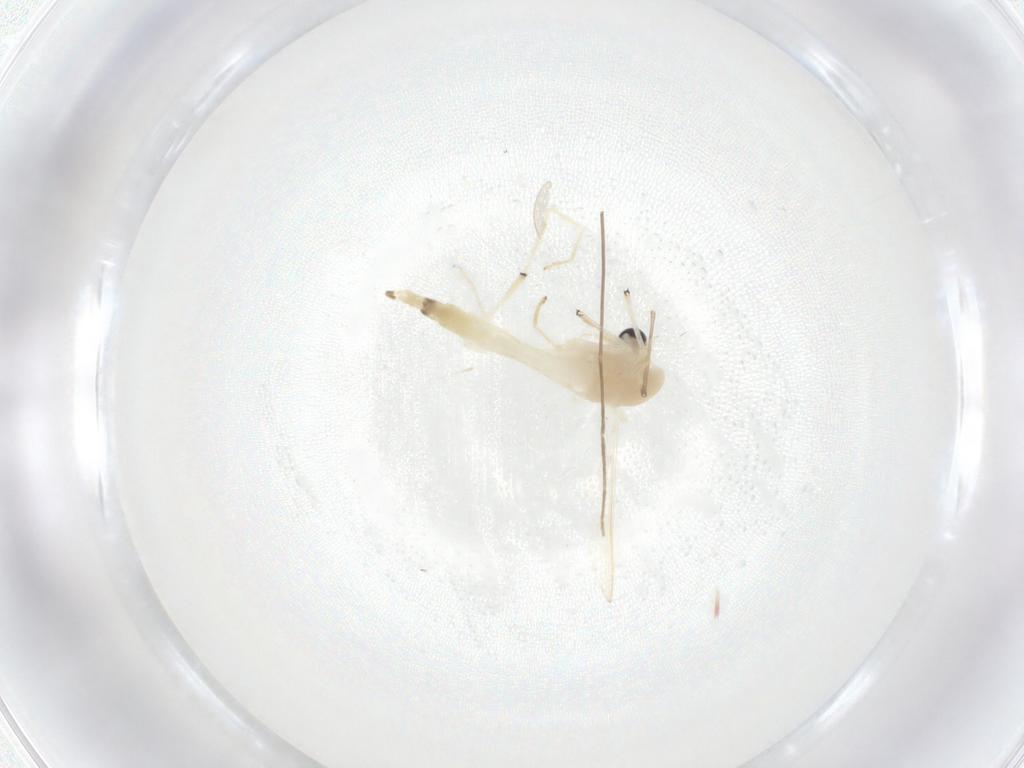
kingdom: Animalia
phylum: Arthropoda
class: Insecta
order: Diptera
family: Chironomidae
